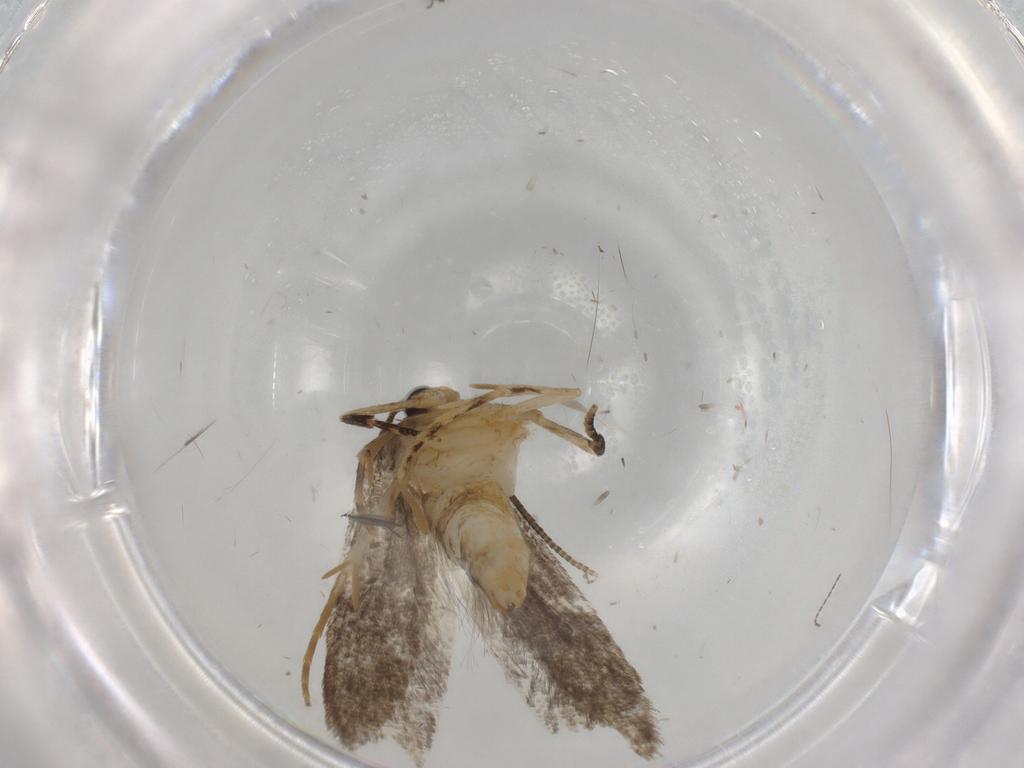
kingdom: Animalia
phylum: Arthropoda
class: Insecta
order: Lepidoptera
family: Tineidae
